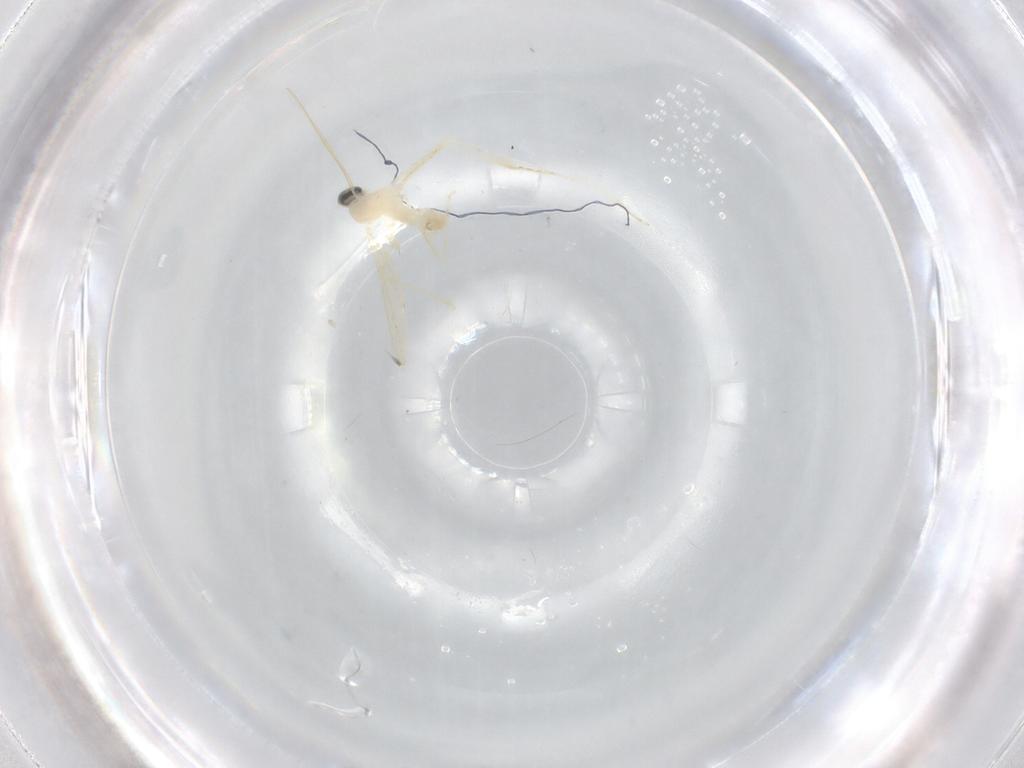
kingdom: Animalia
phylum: Arthropoda
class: Insecta
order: Diptera
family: Cecidomyiidae
